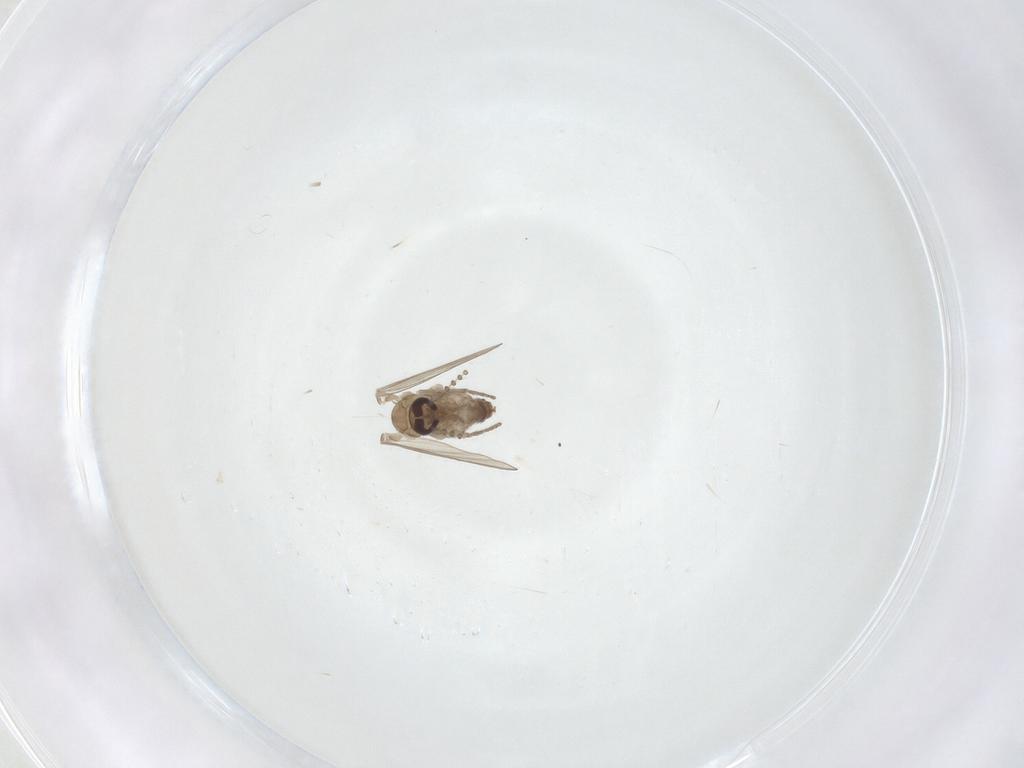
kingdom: Animalia
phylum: Arthropoda
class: Insecta
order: Diptera
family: Psychodidae
